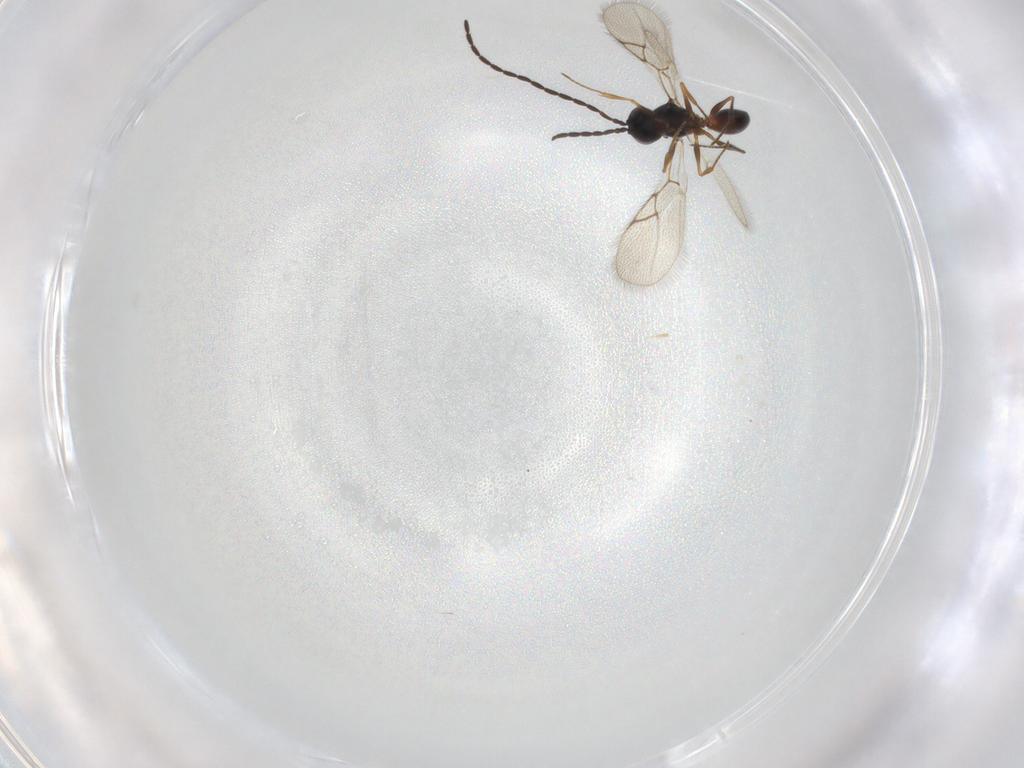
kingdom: Animalia
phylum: Arthropoda
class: Insecta
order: Hymenoptera
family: Figitidae
